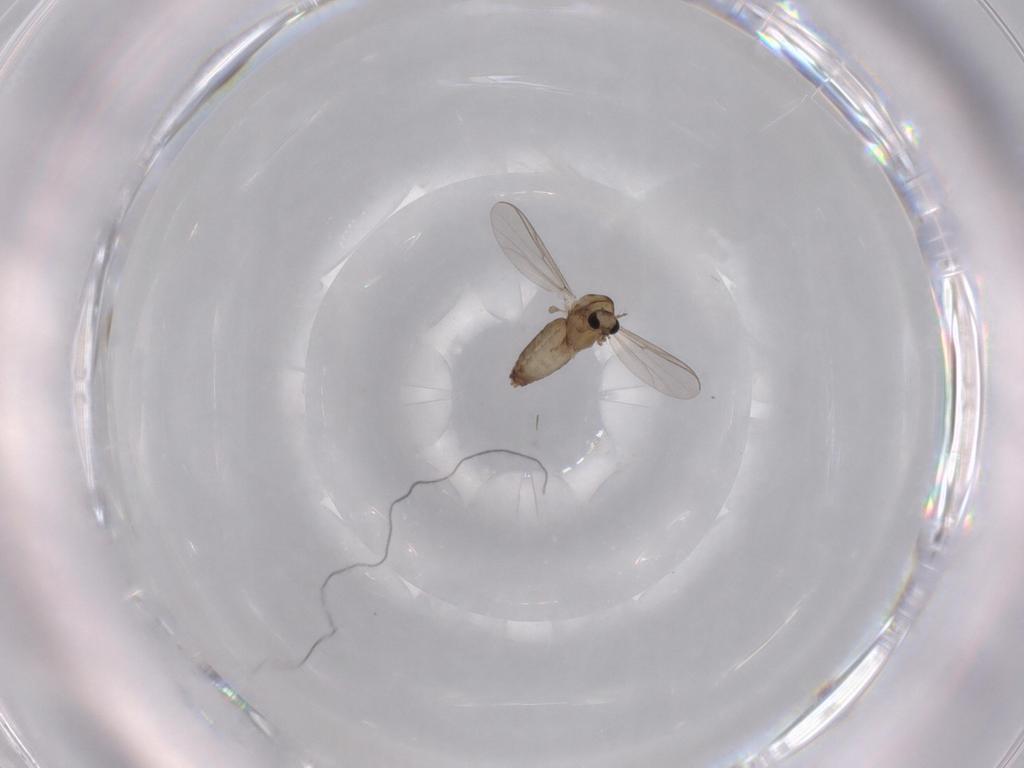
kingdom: Animalia
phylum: Arthropoda
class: Insecta
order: Diptera
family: Chironomidae
